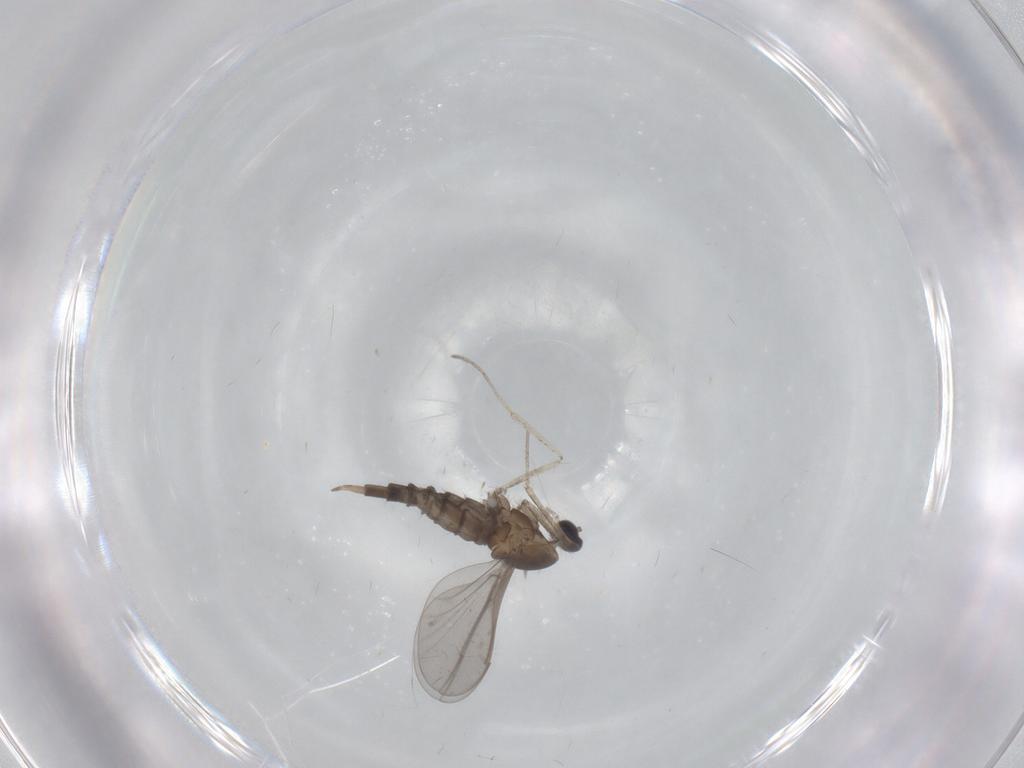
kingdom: Animalia
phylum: Arthropoda
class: Insecta
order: Diptera
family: Cecidomyiidae
